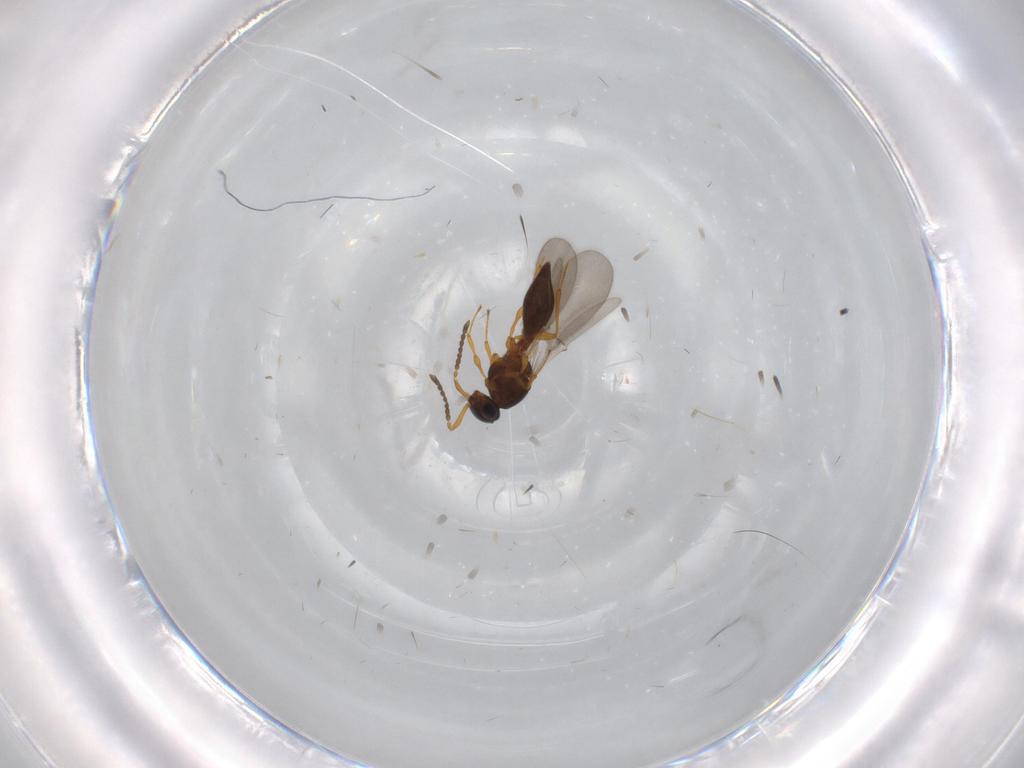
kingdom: Animalia
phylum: Arthropoda
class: Insecta
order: Hymenoptera
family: Platygastridae
